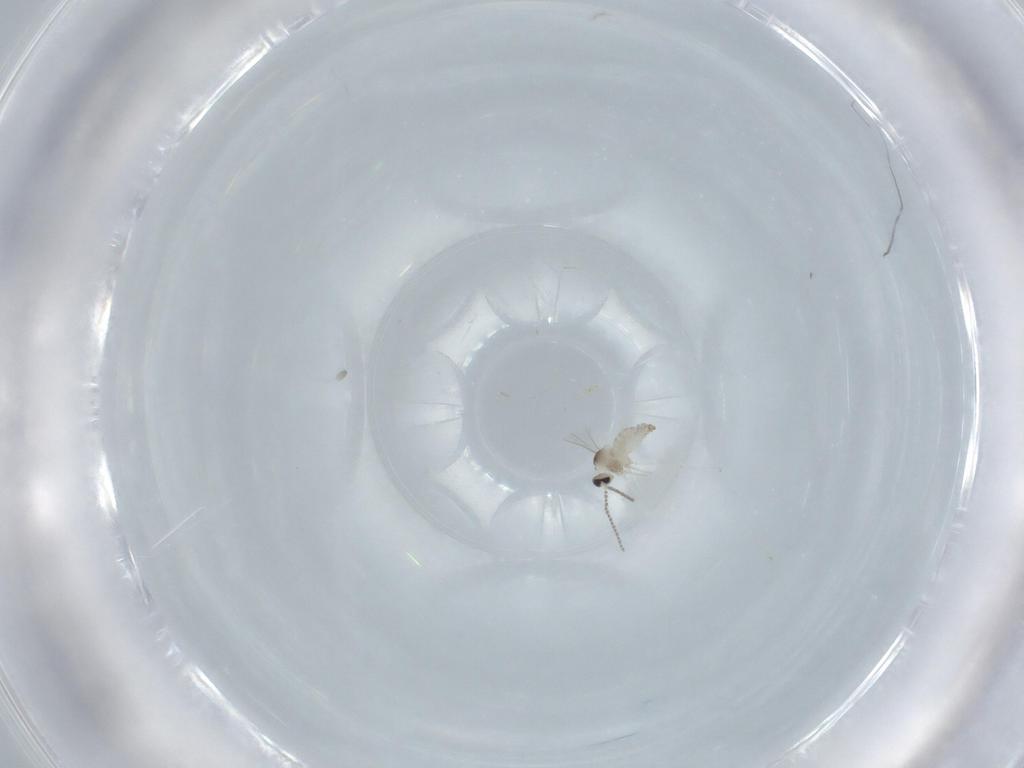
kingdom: Animalia
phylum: Arthropoda
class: Insecta
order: Diptera
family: Cecidomyiidae
